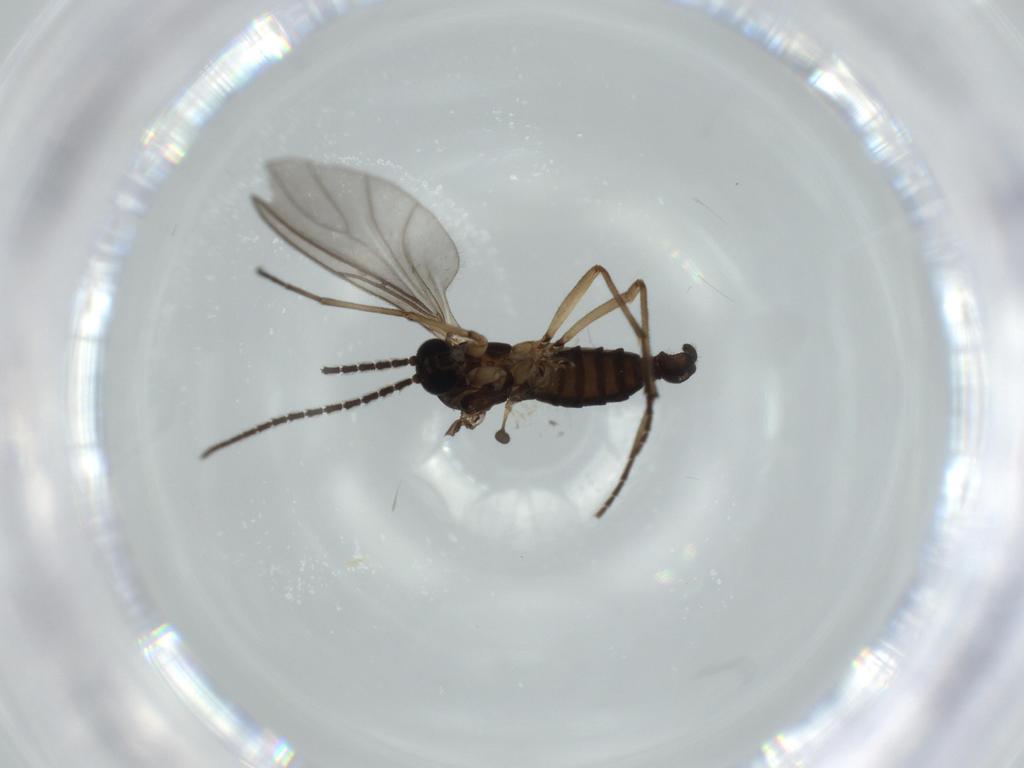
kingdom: Animalia
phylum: Arthropoda
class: Insecta
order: Diptera
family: Sciaridae
